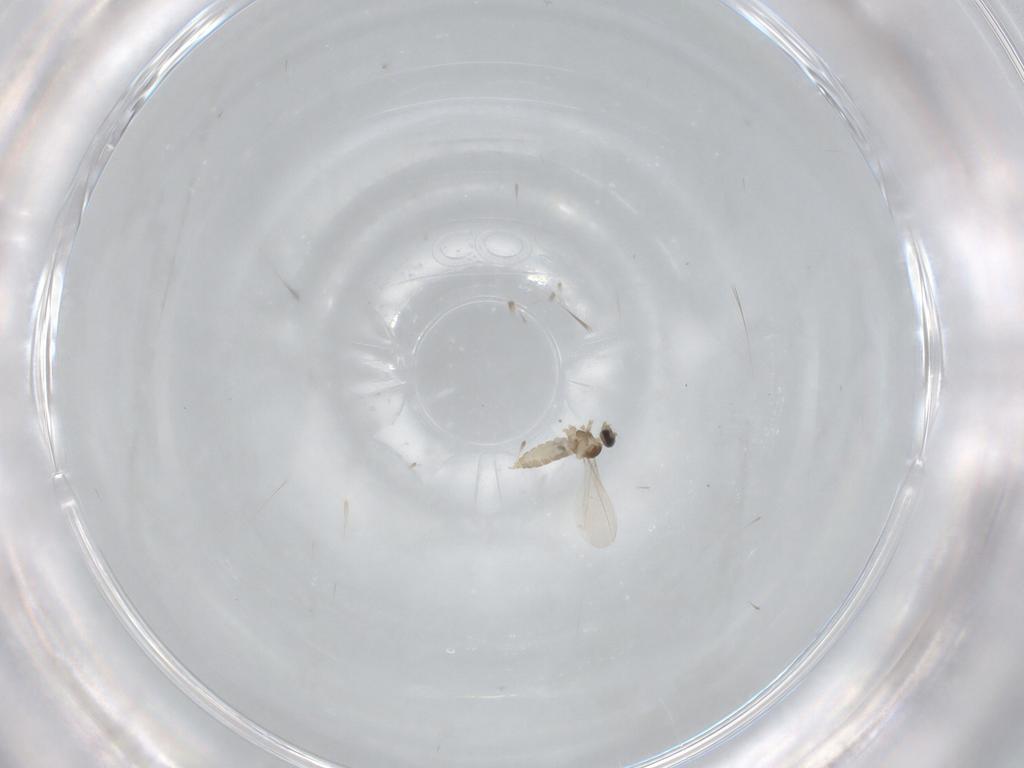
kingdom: Animalia
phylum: Arthropoda
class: Insecta
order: Diptera
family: Cecidomyiidae
